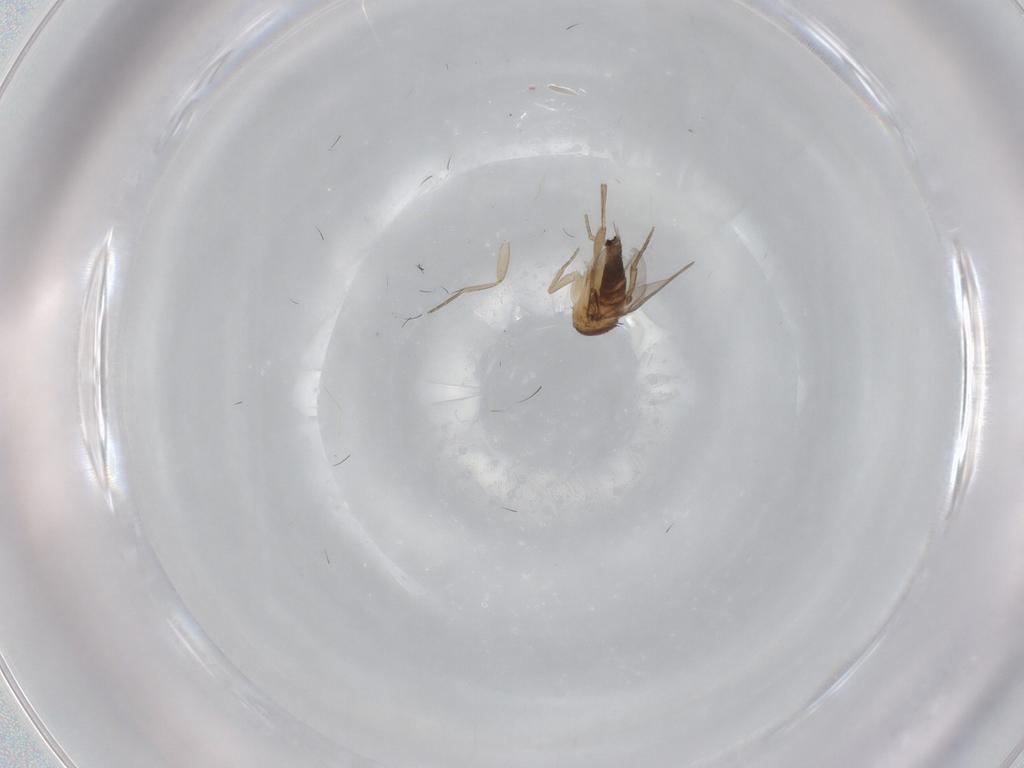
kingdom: Animalia
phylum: Arthropoda
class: Insecta
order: Diptera
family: Phoridae
